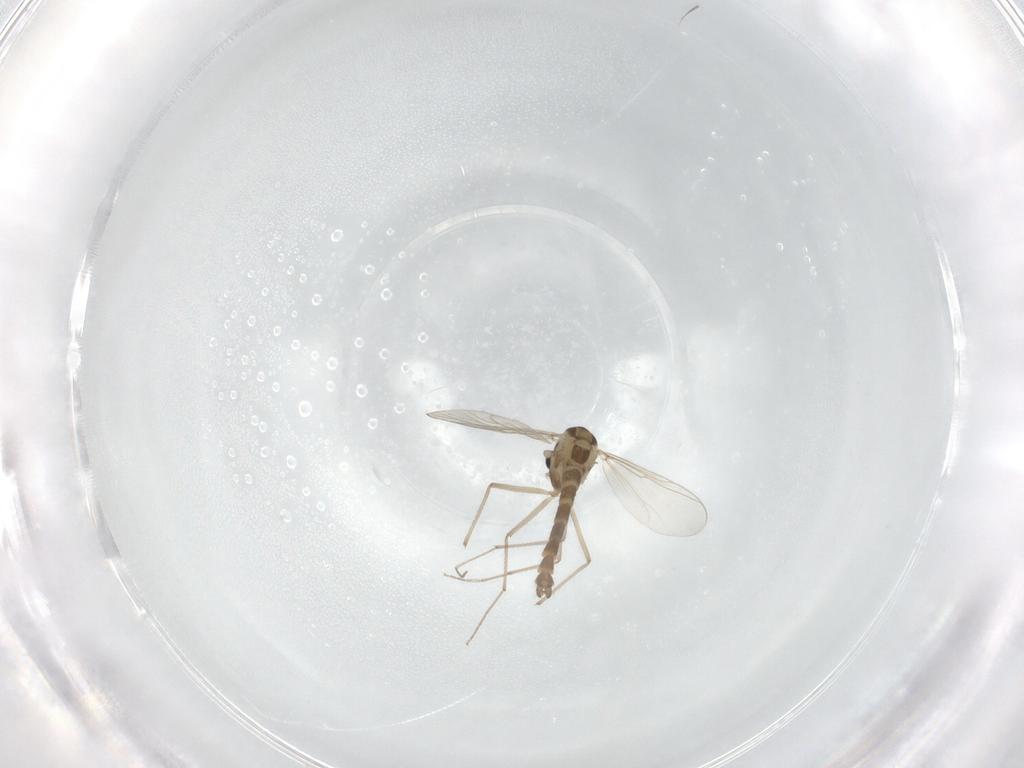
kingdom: Animalia
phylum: Arthropoda
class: Insecta
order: Diptera
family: Chironomidae
